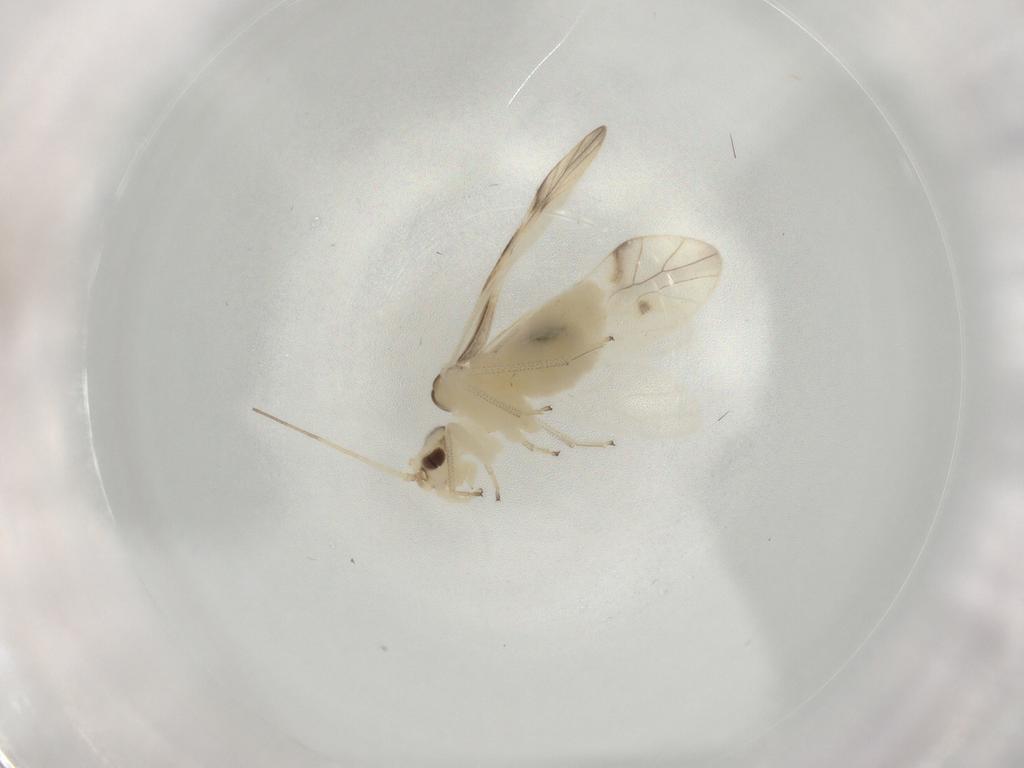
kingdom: Animalia
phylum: Arthropoda
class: Insecta
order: Psocodea
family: Caeciliusidae
